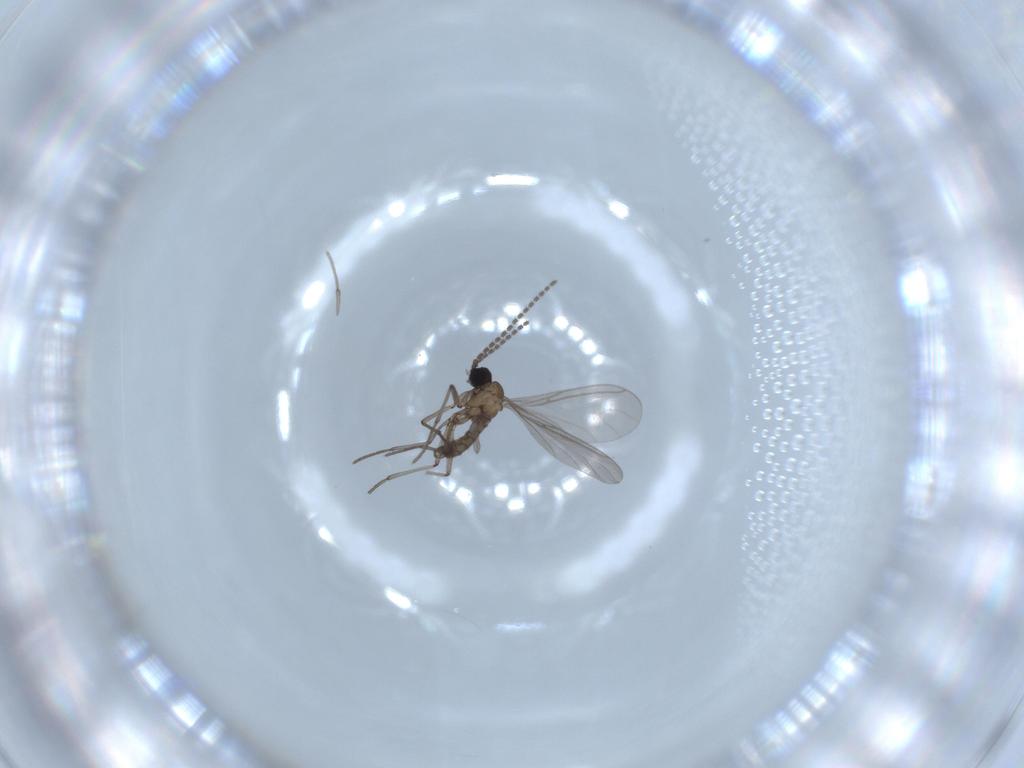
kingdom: Animalia
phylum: Arthropoda
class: Insecta
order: Diptera
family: Sciaridae
